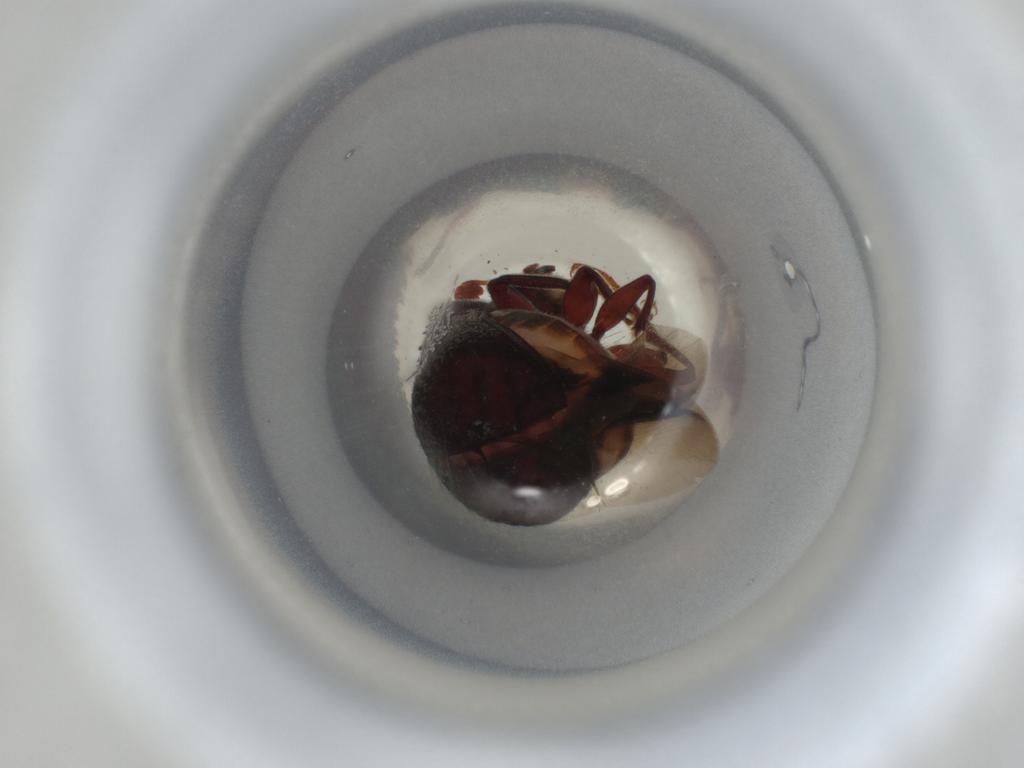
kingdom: Animalia
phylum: Arthropoda
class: Insecta
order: Coleoptera
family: Bostrichidae
